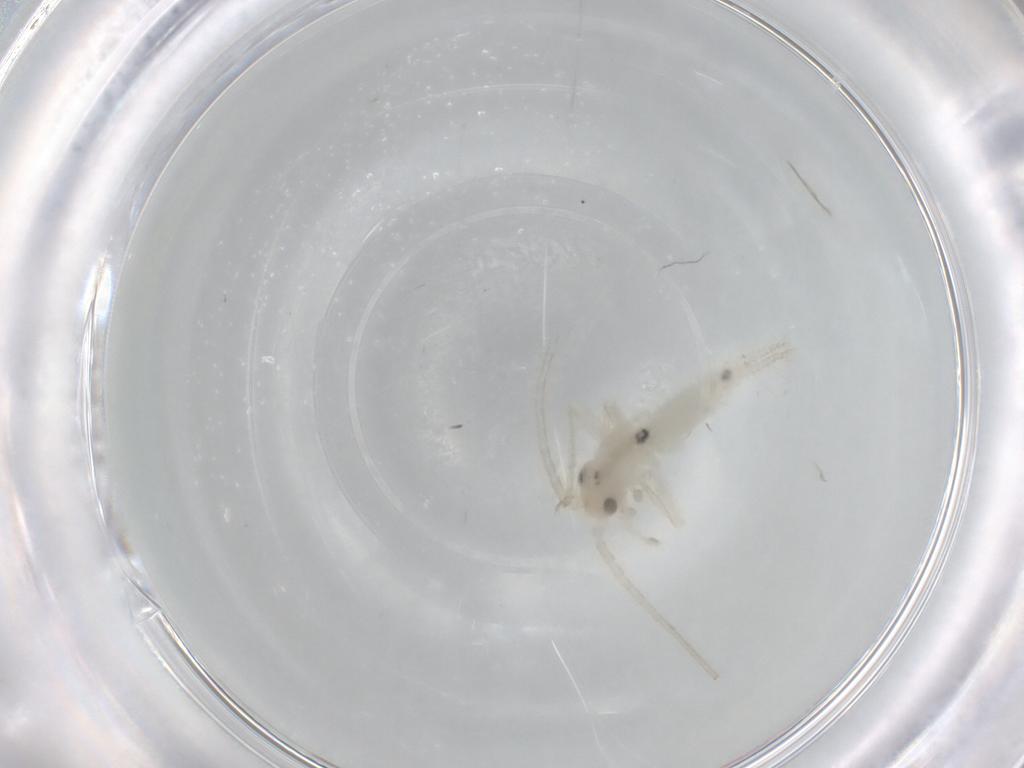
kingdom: Animalia
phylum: Arthropoda
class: Insecta
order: Orthoptera
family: Trigonidiidae
